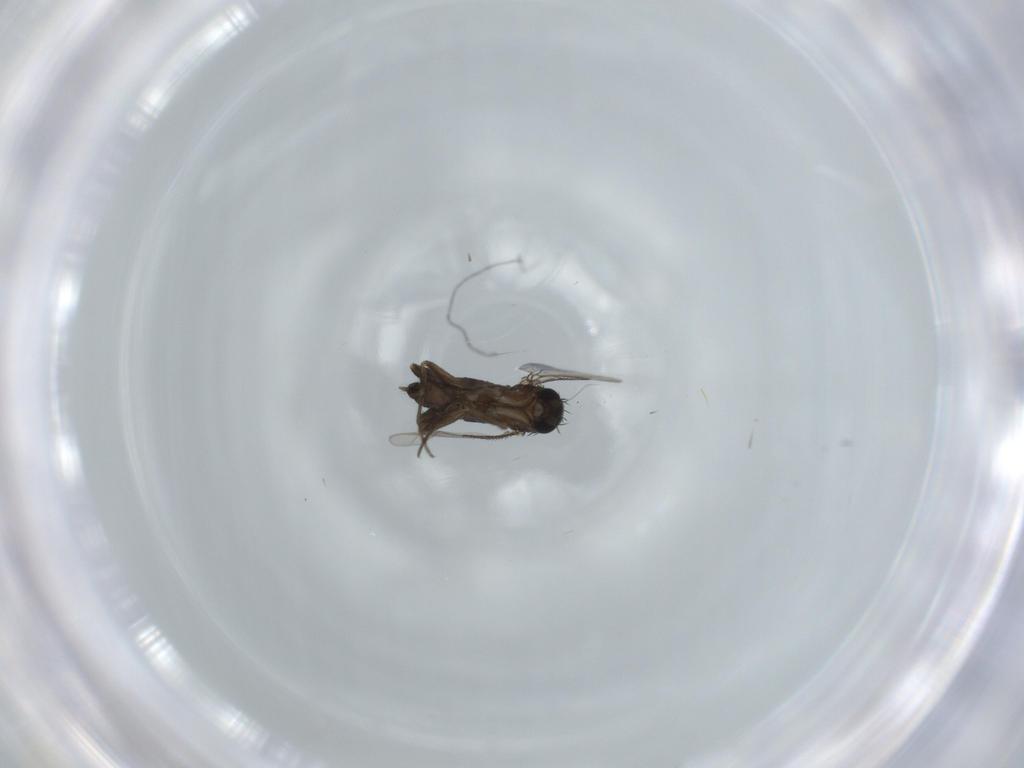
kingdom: Animalia
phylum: Arthropoda
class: Insecta
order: Diptera
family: Phoridae
